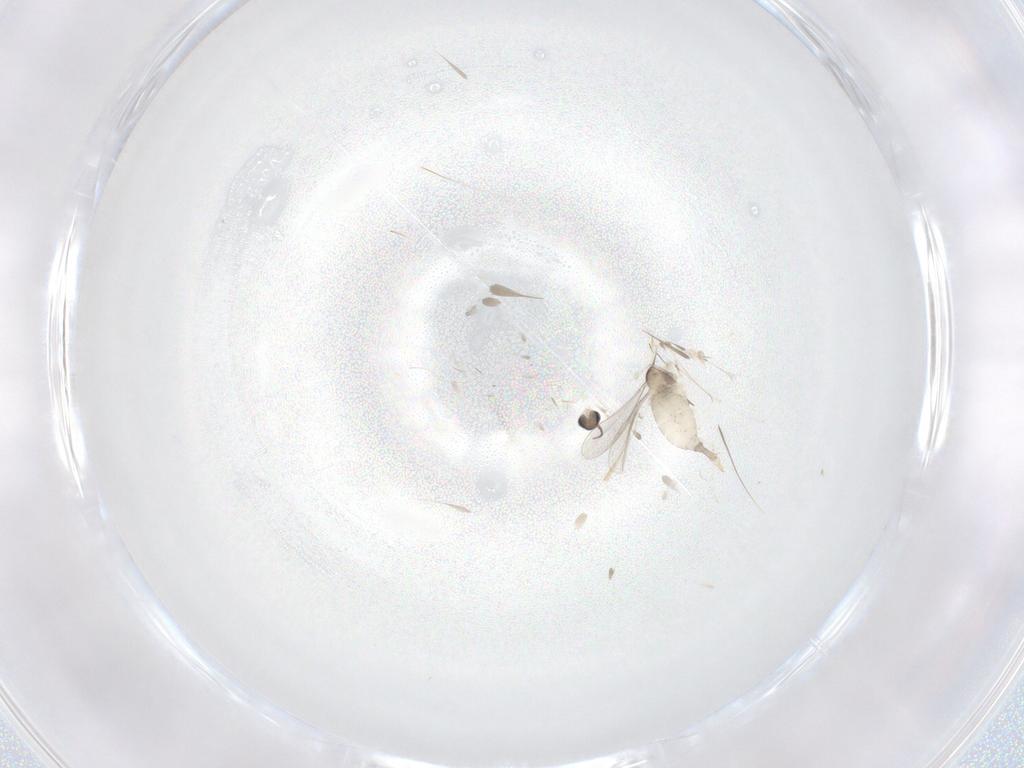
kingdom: Animalia
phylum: Arthropoda
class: Insecta
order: Diptera
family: Cecidomyiidae
